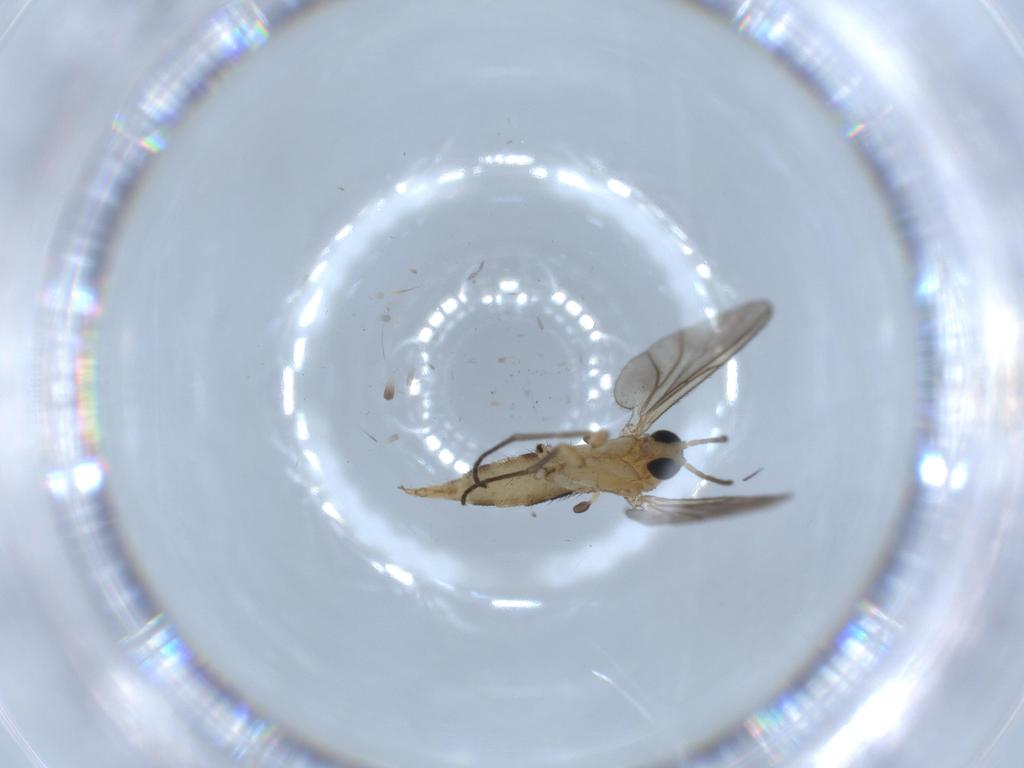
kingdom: Animalia
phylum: Arthropoda
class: Insecta
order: Diptera
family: Sciaridae
